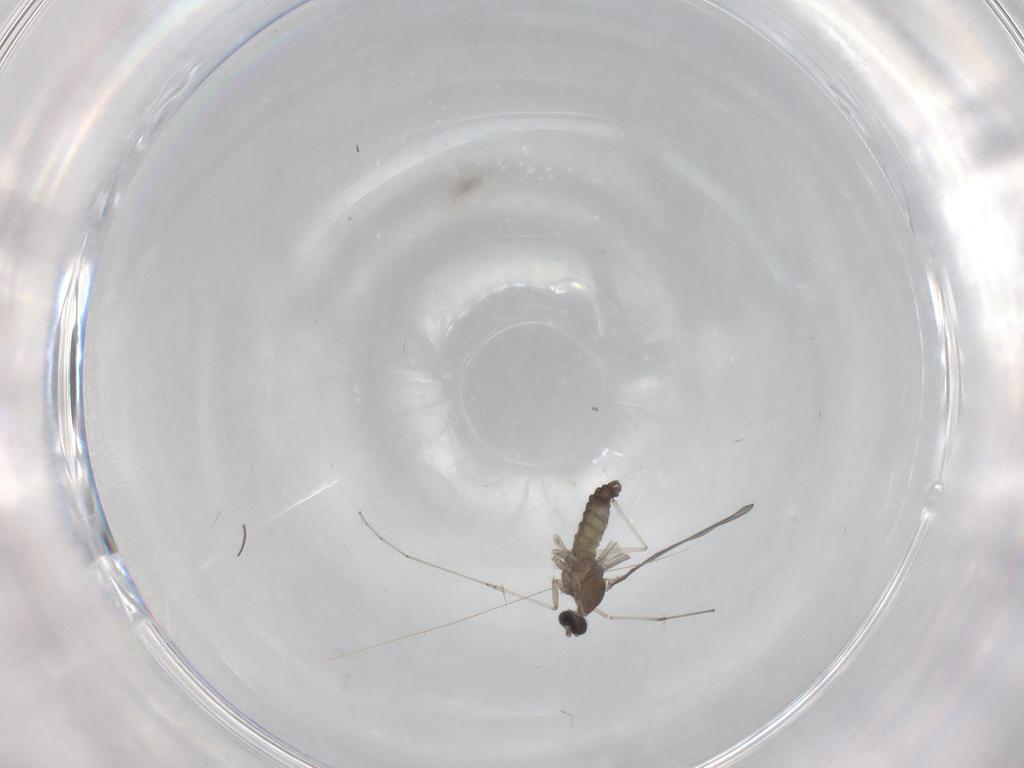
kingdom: Animalia
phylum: Arthropoda
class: Insecta
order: Diptera
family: Cecidomyiidae
